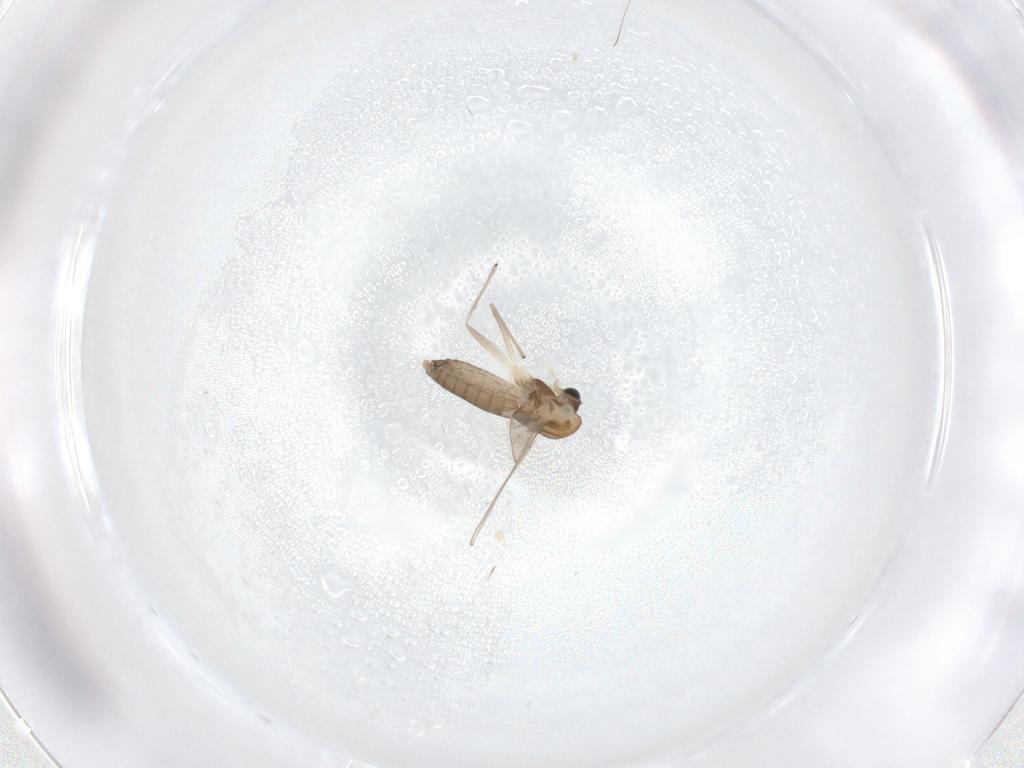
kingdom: Animalia
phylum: Arthropoda
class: Insecta
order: Diptera
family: Chironomidae
